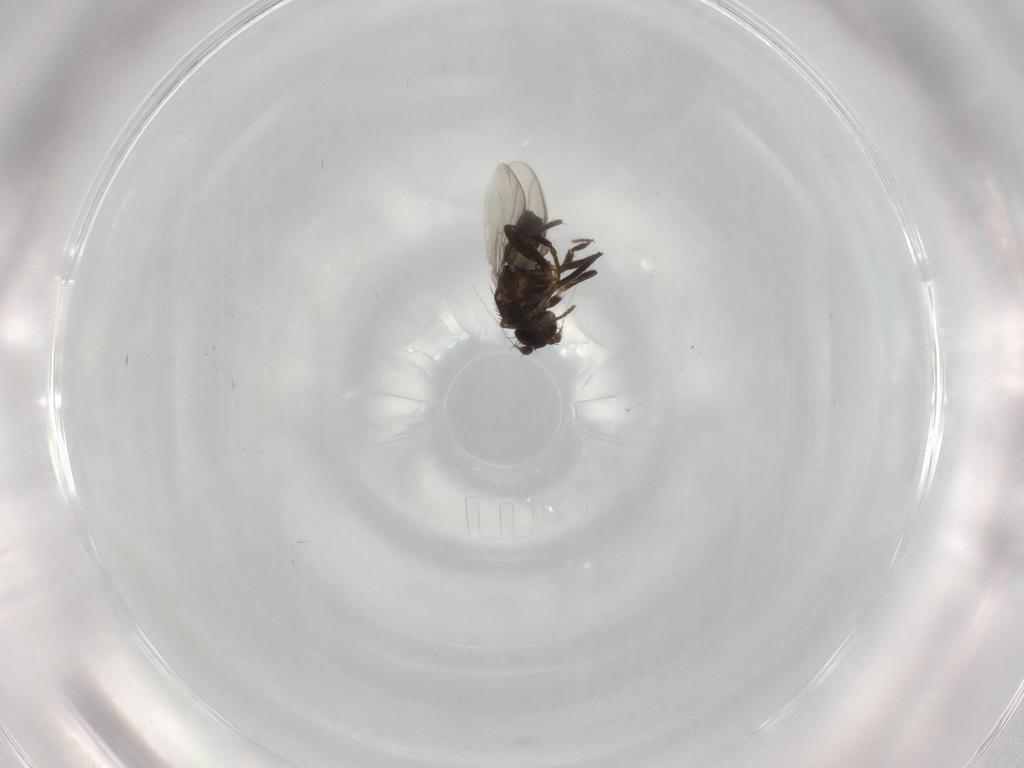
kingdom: Animalia
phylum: Arthropoda
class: Insecta
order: Diptera
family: Sphaeroceridae
